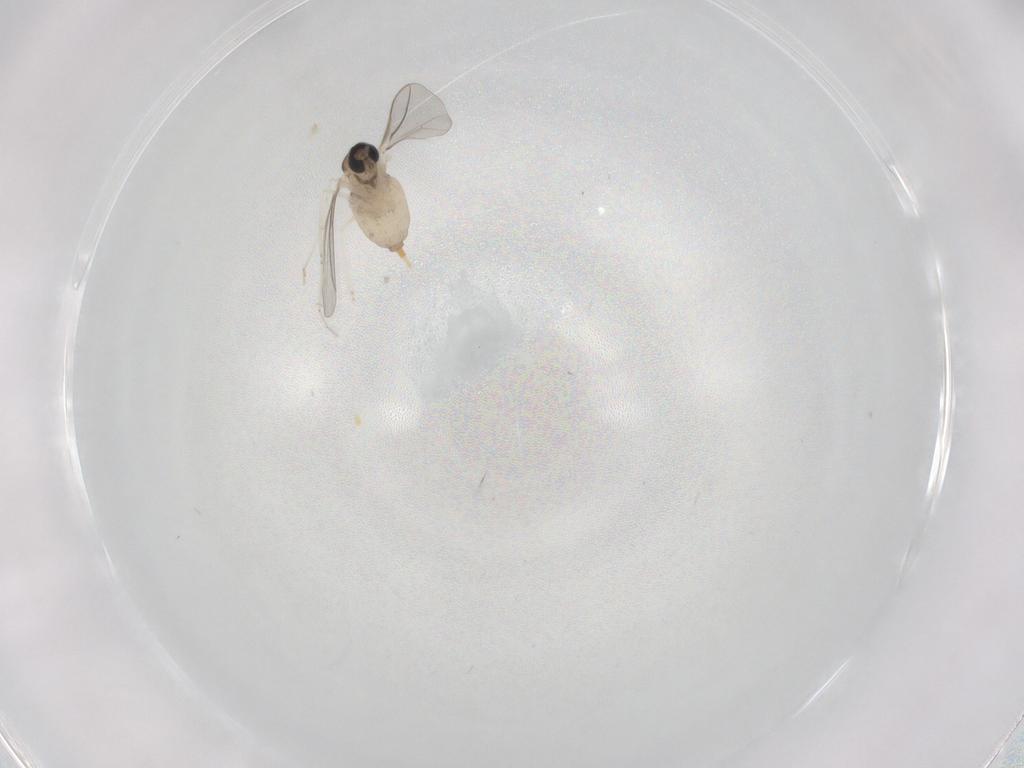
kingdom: Animalia
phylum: Arthropoda
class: Insecta
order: Diptera
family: Cecidomyiidae
